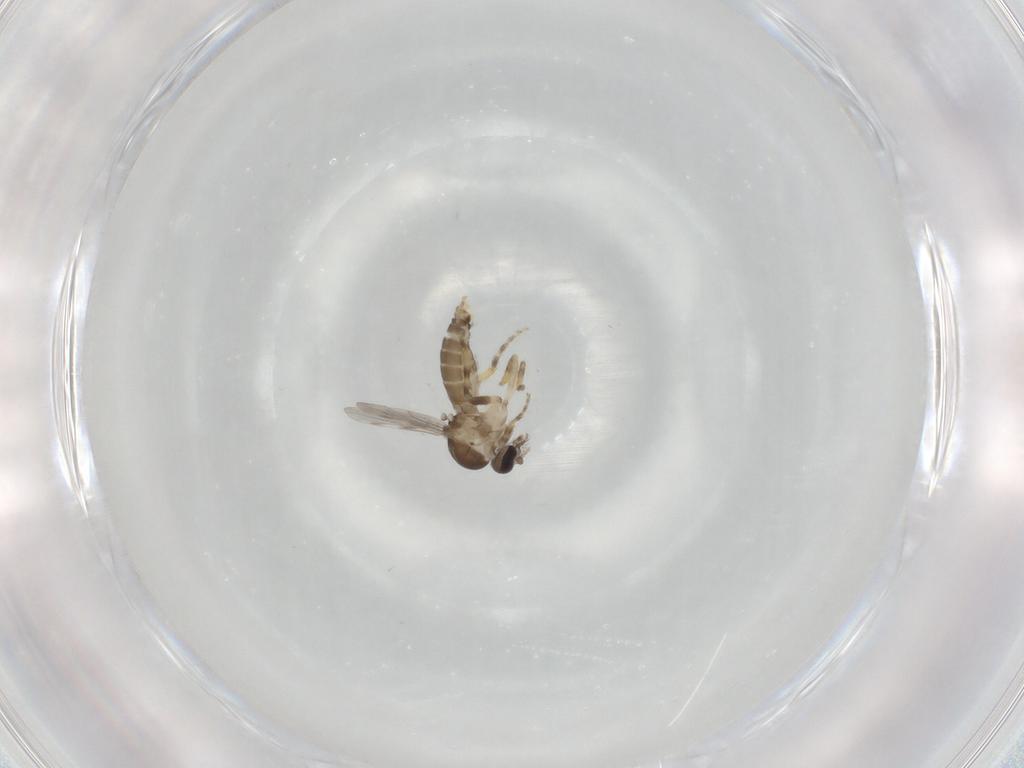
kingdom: Animalia
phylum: Arthropoda
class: Insecta
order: Diptera
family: Ceratopogonidae
